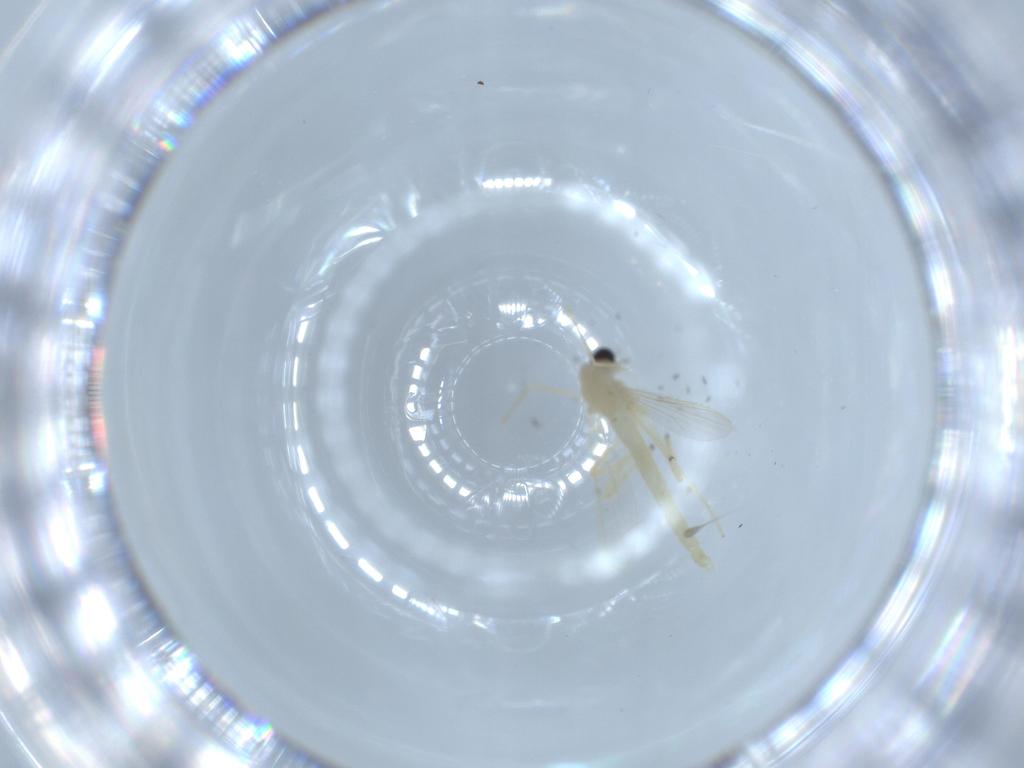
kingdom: Animalia
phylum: Arthropoda
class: Insecta
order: Diptera
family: Chironomidae
